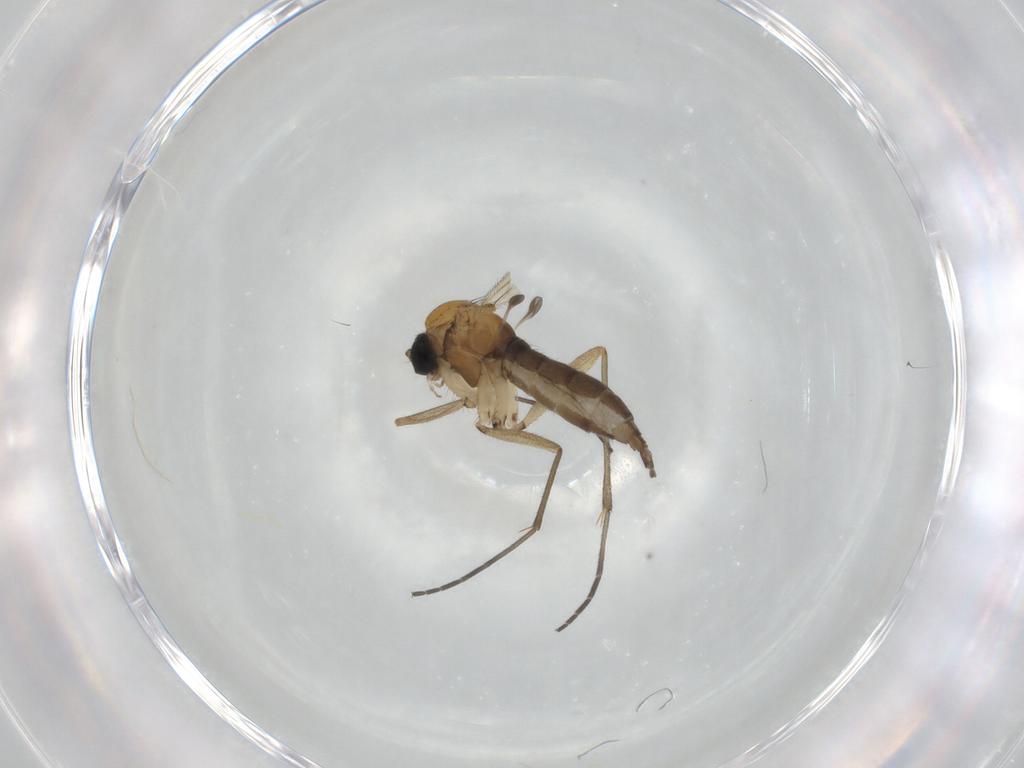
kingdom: Animalia
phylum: Arthropoda
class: Insecta
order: Diptera
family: Sciaridae
